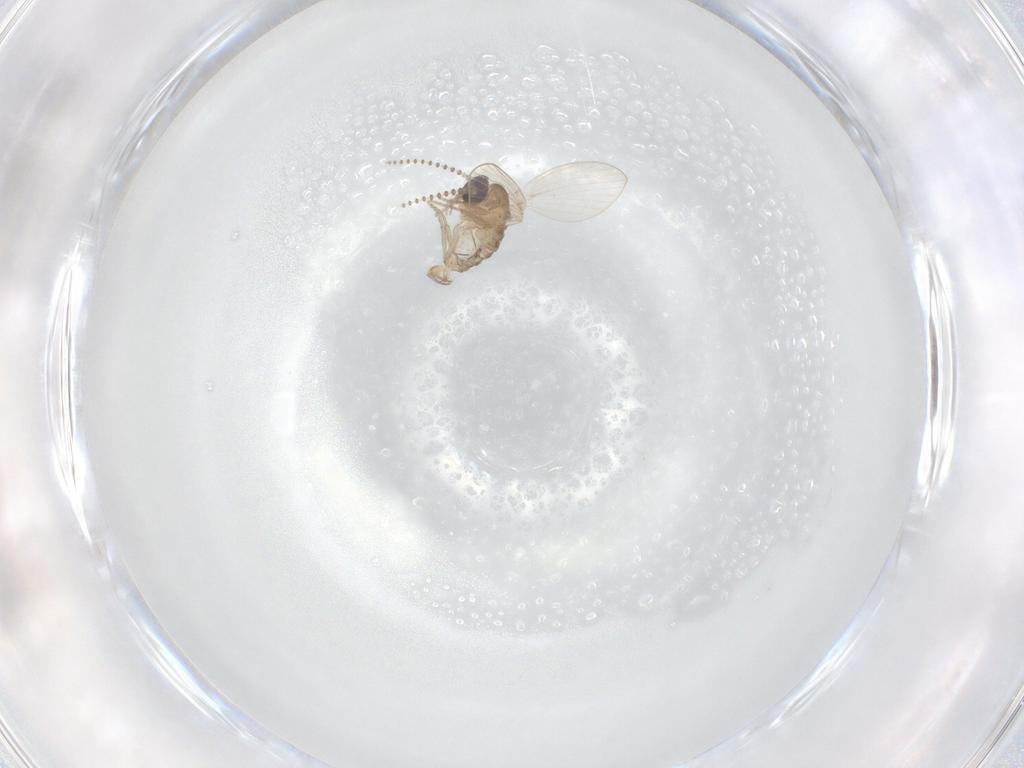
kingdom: Animalia
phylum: Arthropoda
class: Insecta
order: Diptera
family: Psychodidae
